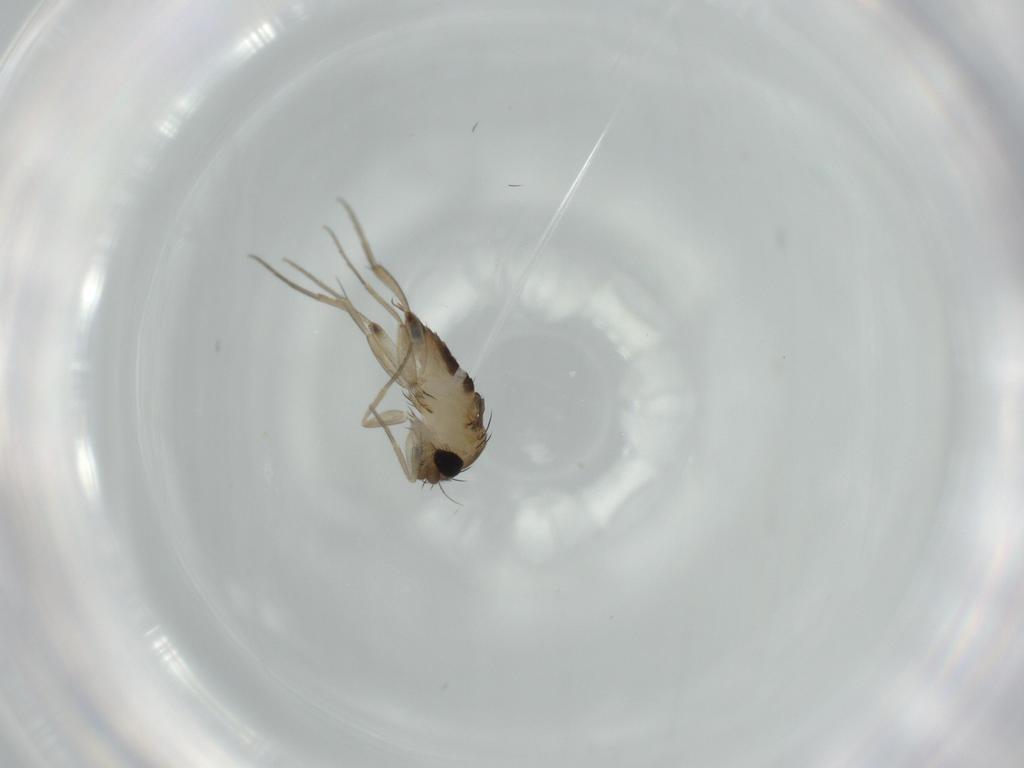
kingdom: Animalia
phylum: Arthropoda
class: Insecta
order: Diptera
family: Phoridae
